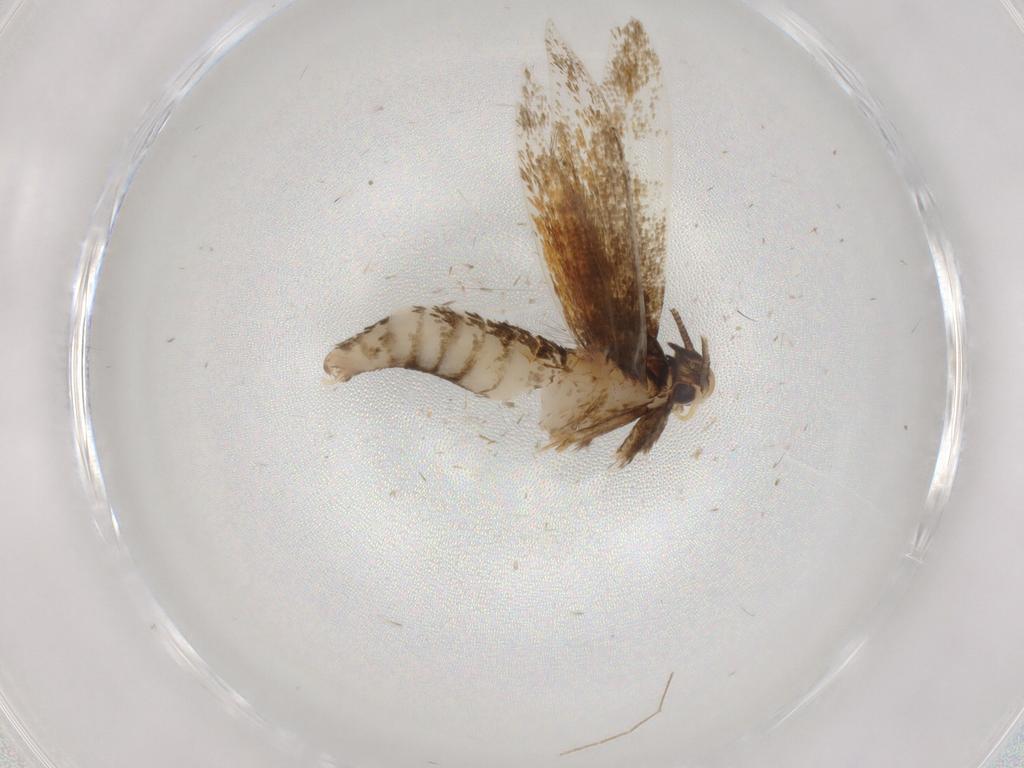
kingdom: Animalia
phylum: Arthropoda
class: Insecta
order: Lepidoptera
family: Tineidae
